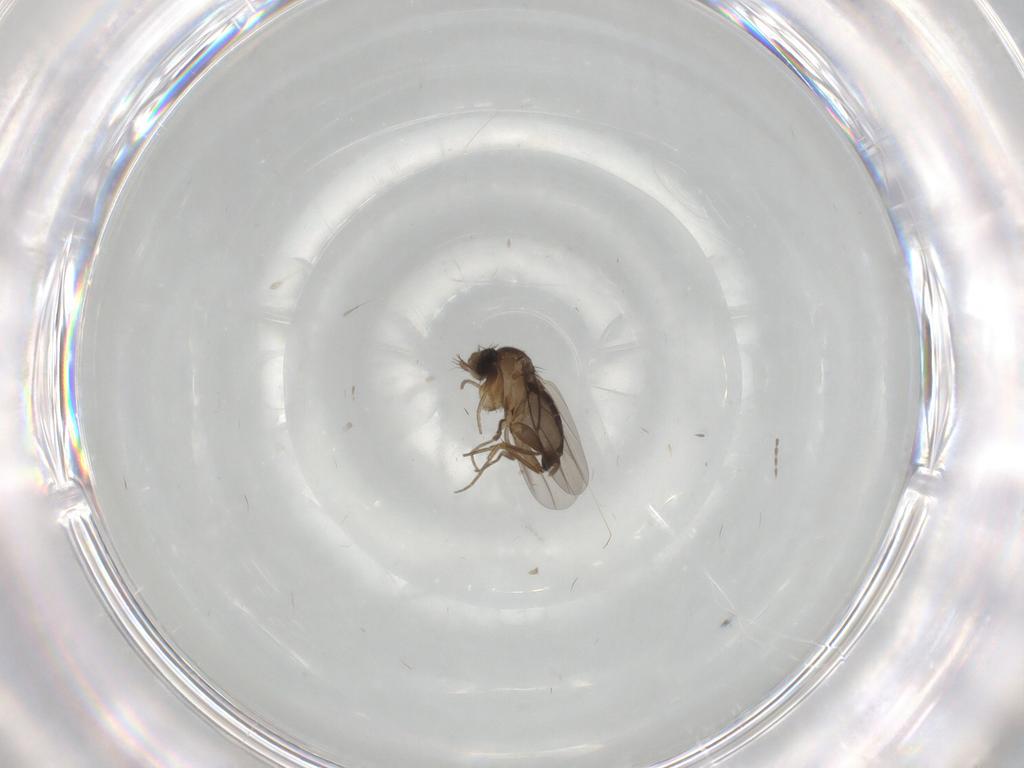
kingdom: Animalia
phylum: Arthropoda
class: Insecta
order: Diptera
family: Phoridae
